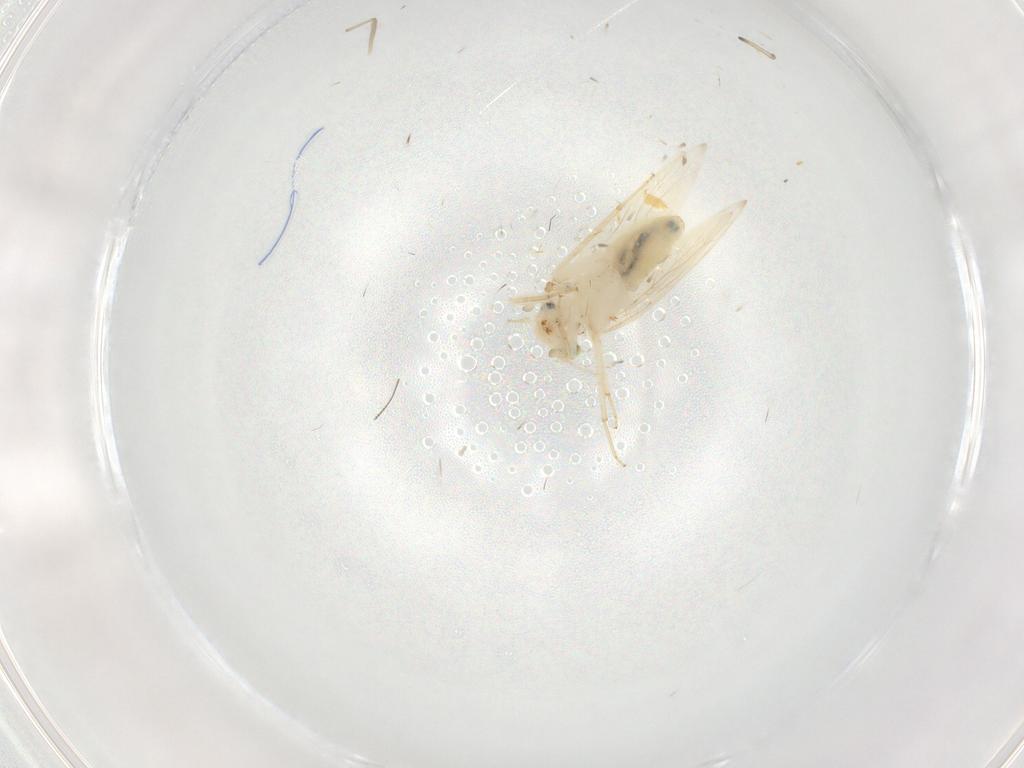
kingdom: Animalia
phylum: Arthropoda
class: Insecta
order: Psocodea
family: Lepidopsocidae
